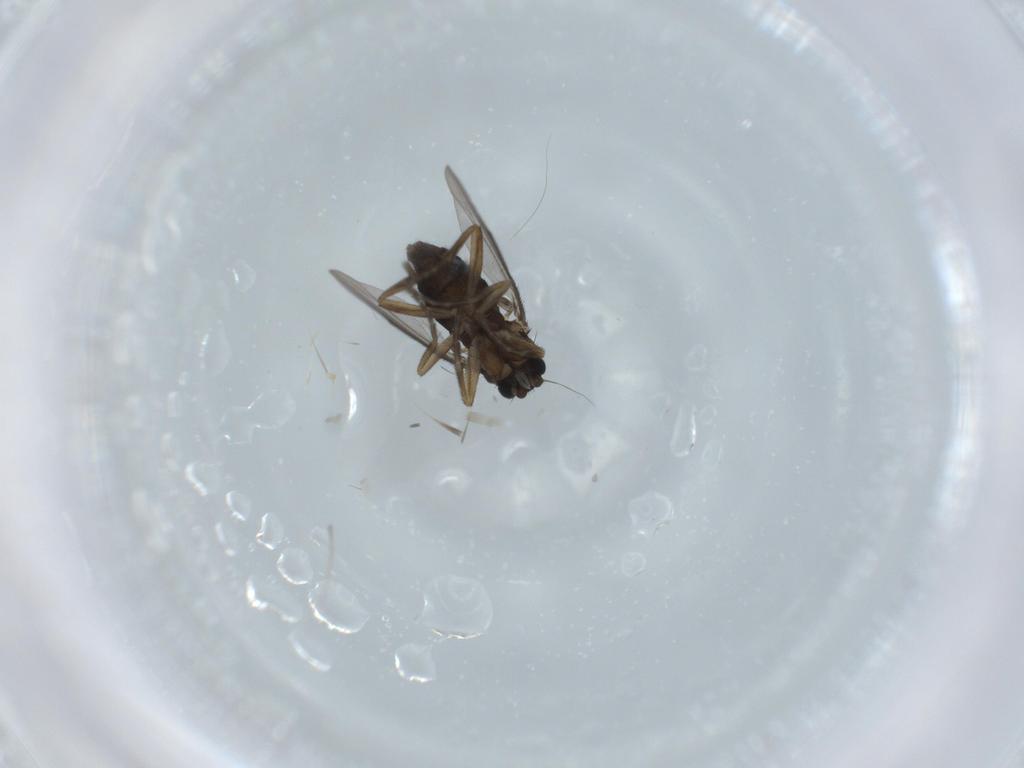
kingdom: Animalia
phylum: Arthropoda
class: Insecta
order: Diptera
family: Phoridae
